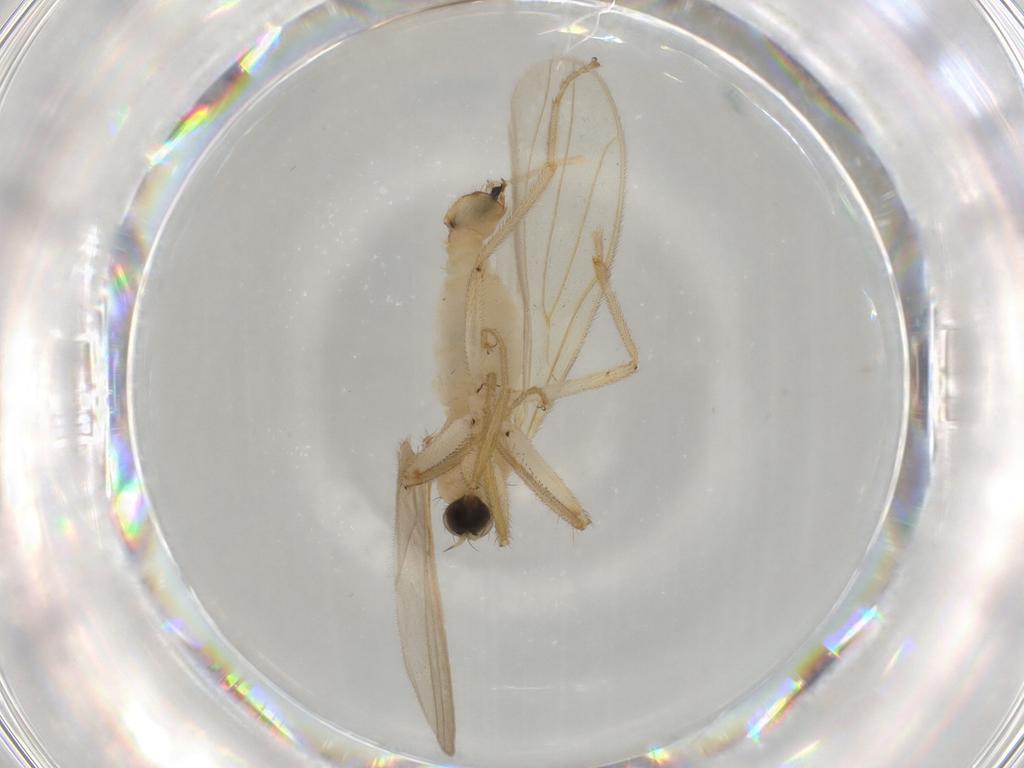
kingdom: Animalia
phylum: Arthropoda
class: Insecta
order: Diptera
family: Hybotidae
